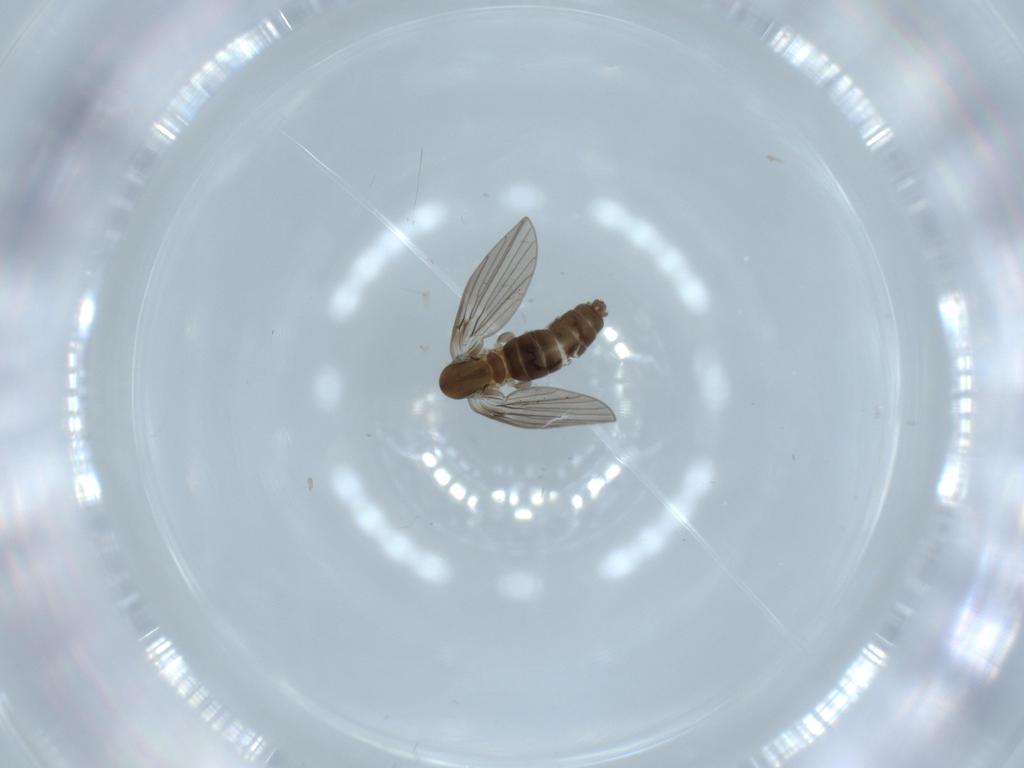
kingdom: Animalia
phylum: Arthropoda
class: Insecta
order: Diptera
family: Psychodidae
